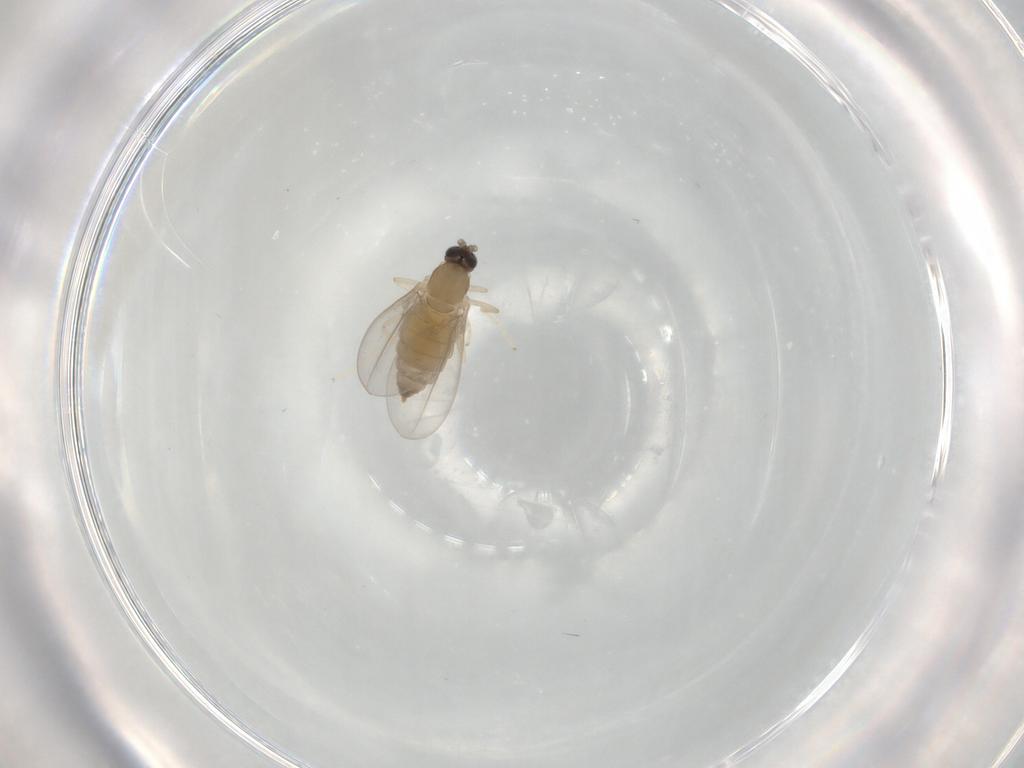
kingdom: Animalia
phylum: Arthropoda
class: Insecta
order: Diptera
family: Cecidomyiidae
